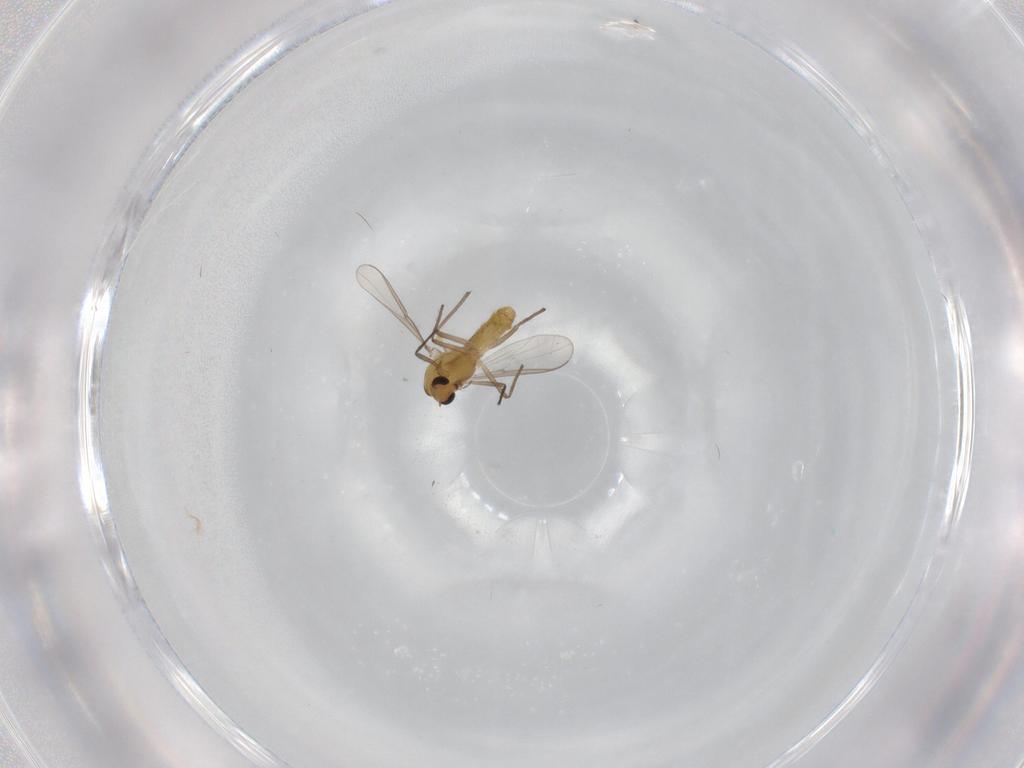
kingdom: Animalia
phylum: Arthropoda
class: Insecta
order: Diptera
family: Chironomidae
